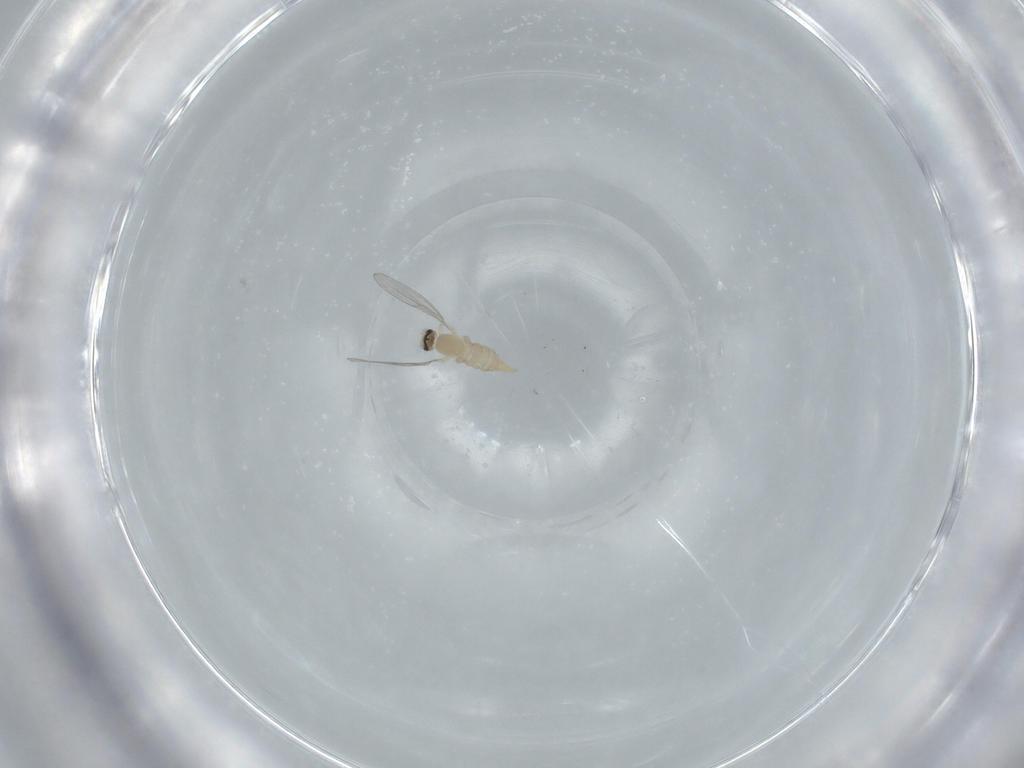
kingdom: Animalia
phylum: Arthropoda
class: Insecta
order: Diptera
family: Cecidomyiidae
